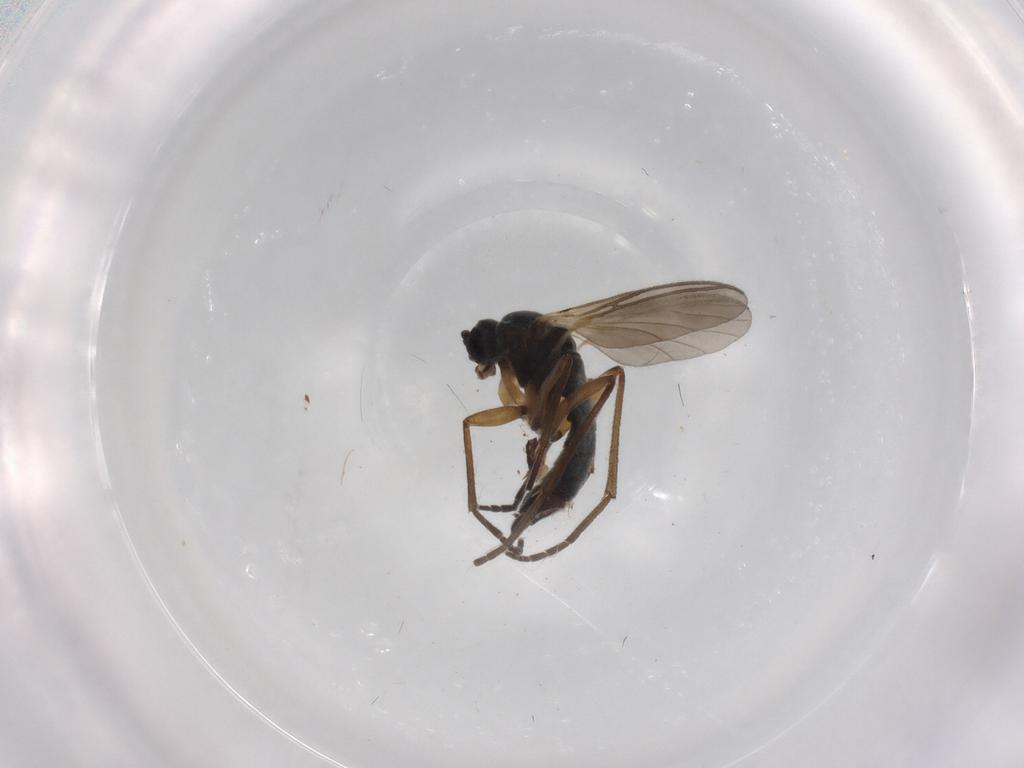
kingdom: Animalia
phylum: Arthropoda
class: Insecta
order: Diptera
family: Sciaridae
